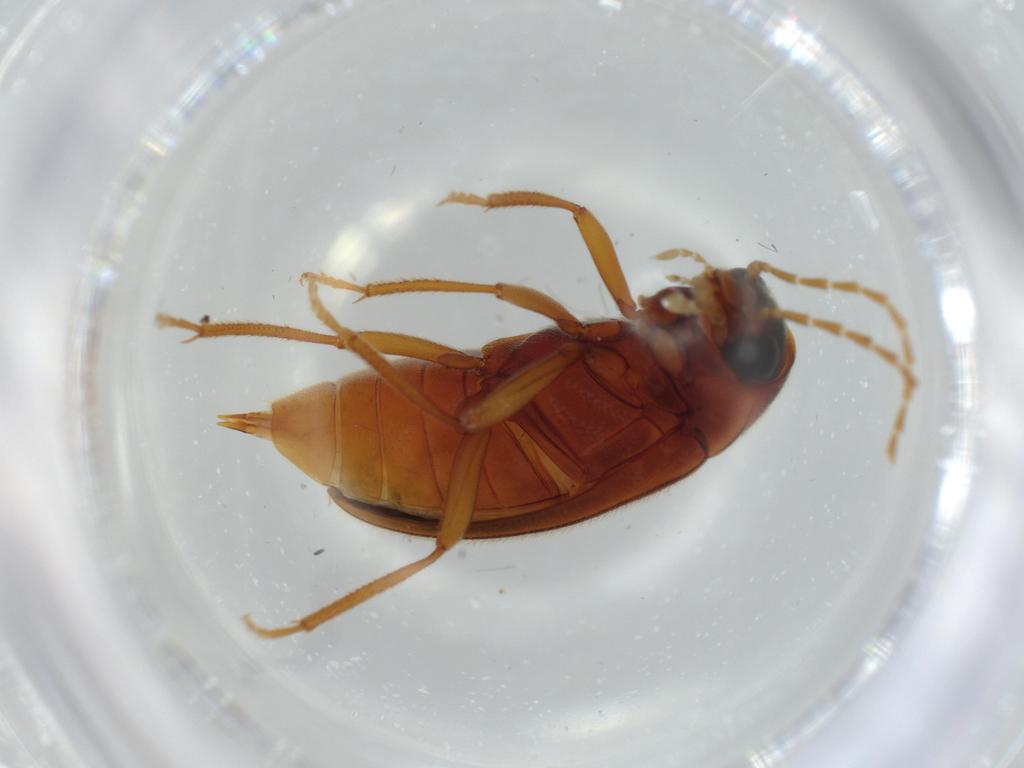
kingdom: Animalia
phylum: Arthropoda
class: Insecta
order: Coleoptera
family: Ptilodactylidae
